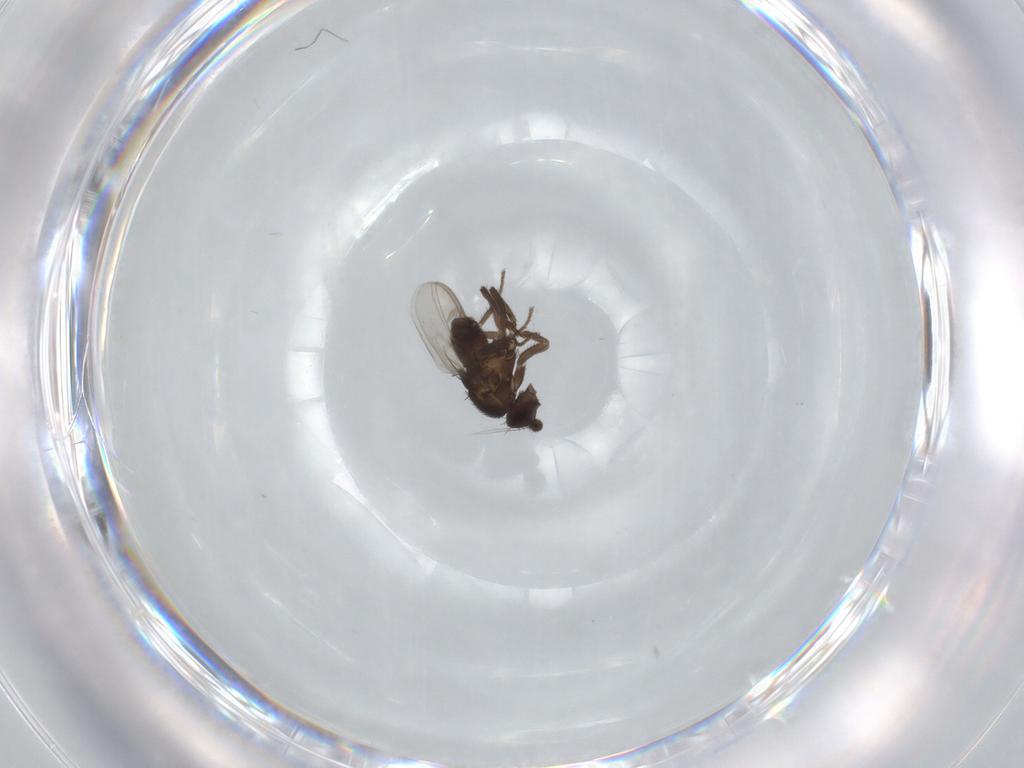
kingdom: Animalia
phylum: Arthropoda
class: Insecta
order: Diptera
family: Sphaeroceridae
